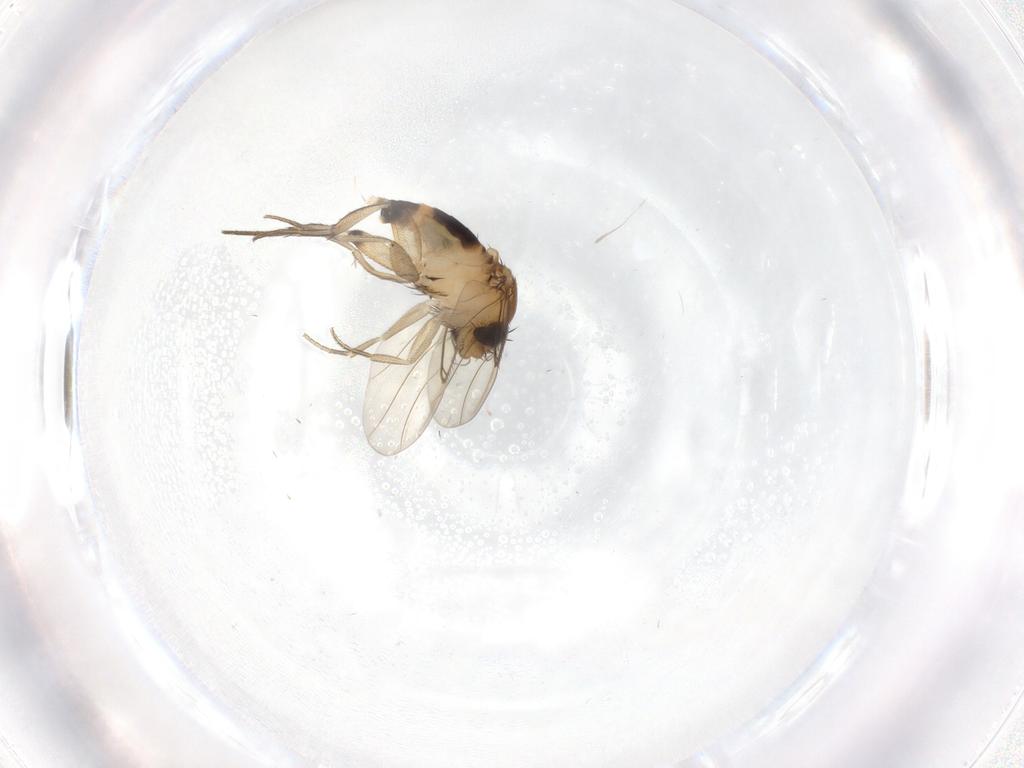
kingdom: Animalia
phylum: Arthropoda
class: Insecta
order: Diptera
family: Phoridae
